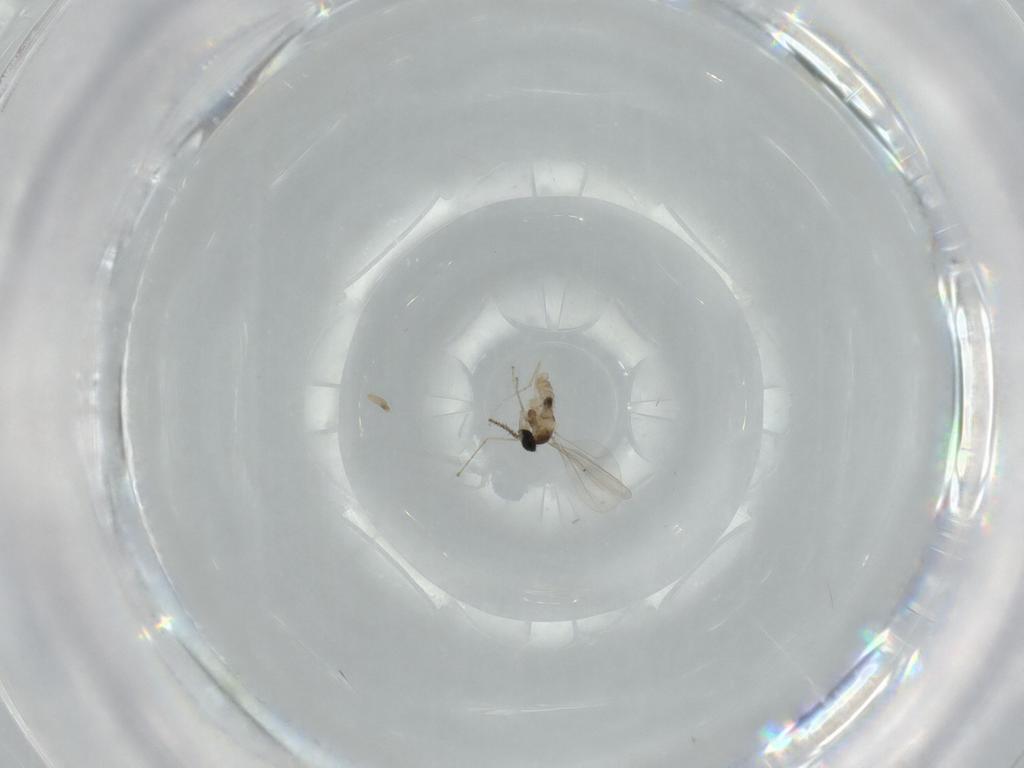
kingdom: Animalia
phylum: Arthropoda
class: Insecta
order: Diptera
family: Cecidomyiidae
